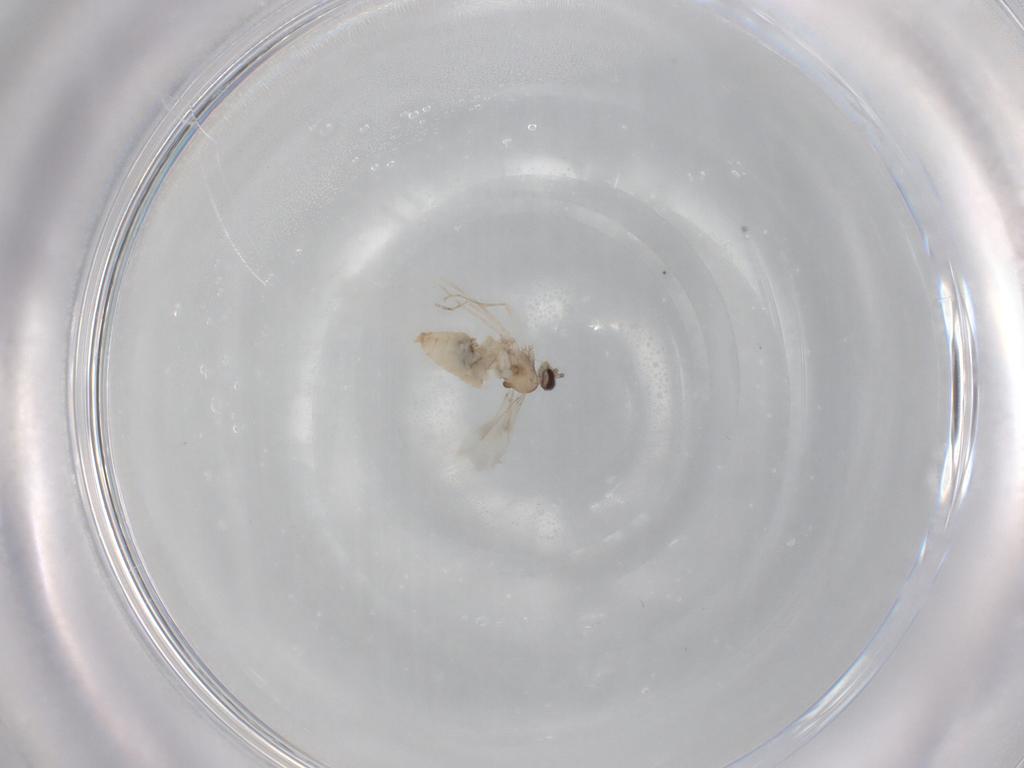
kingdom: Animalia
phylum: Arthropoda
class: Insecta
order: Diptera
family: Cecidomyiidae
